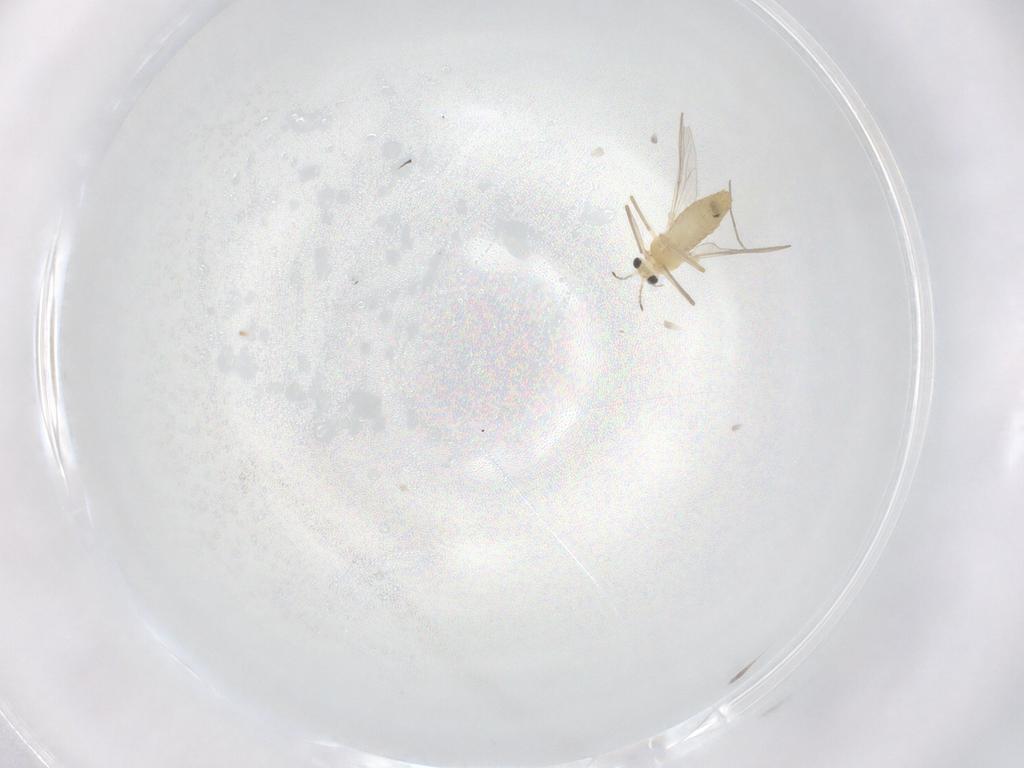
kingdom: Animalia
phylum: Arthropoda
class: Insecta
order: Diptera
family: Chironomidae
